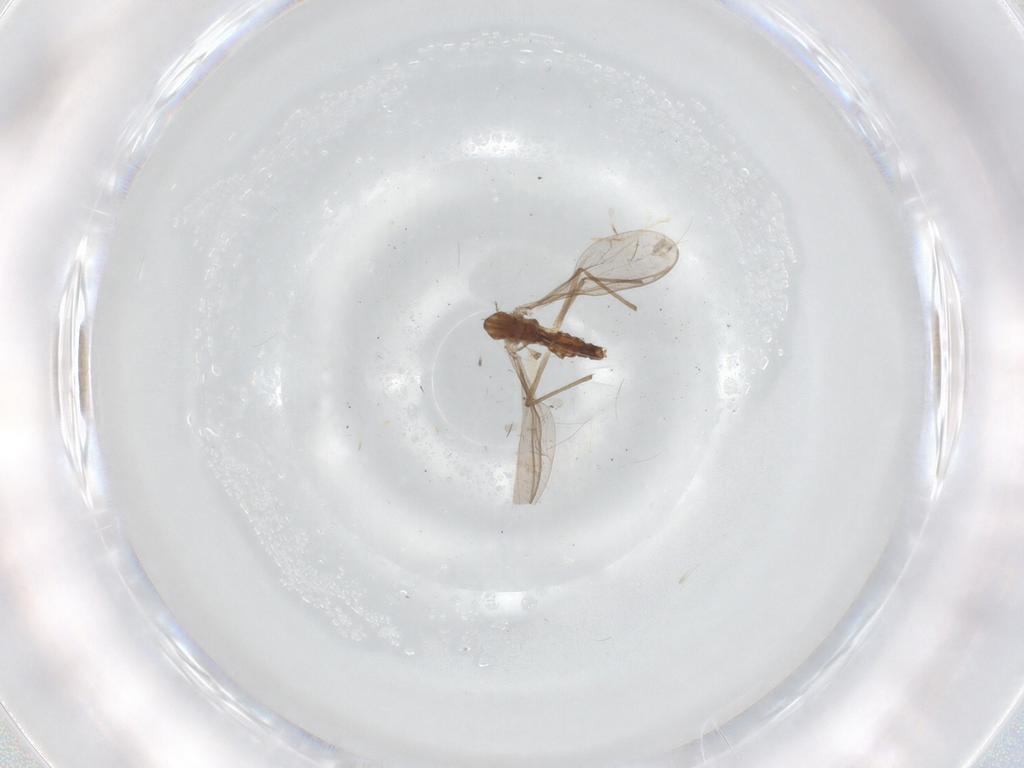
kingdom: Animalia
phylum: Arthropoda
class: Insecta
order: Diptera
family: Chironomidae
